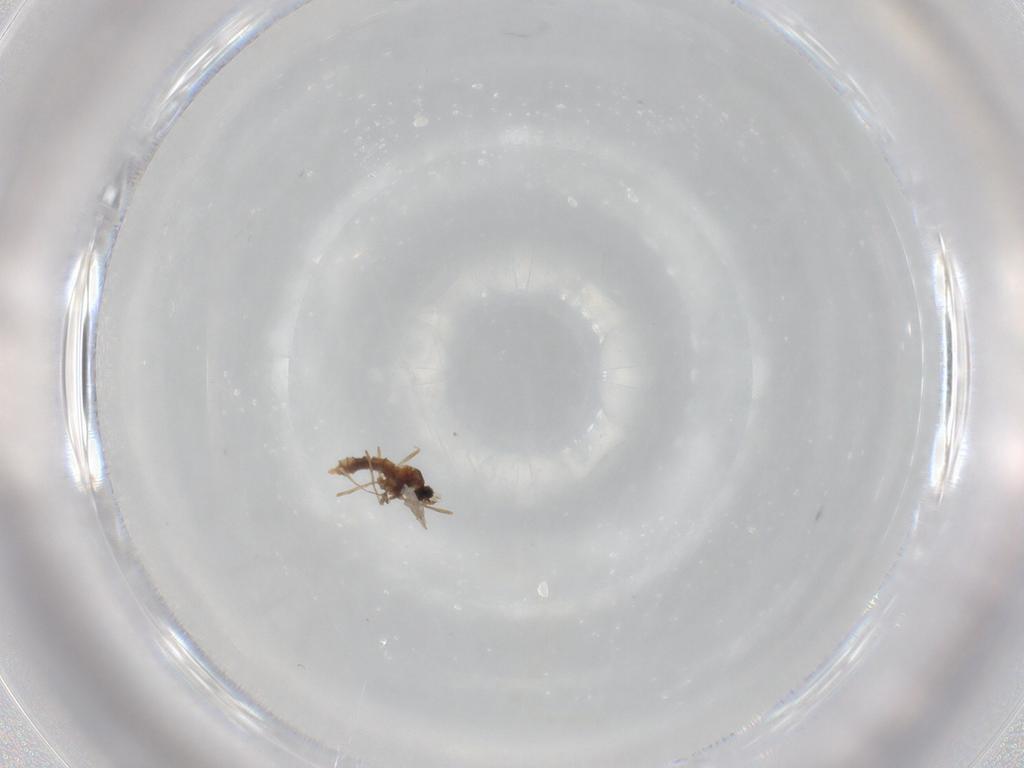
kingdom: Animalia
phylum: Arthropoda
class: Insecta
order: Diptera
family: Cecidomyiidae
